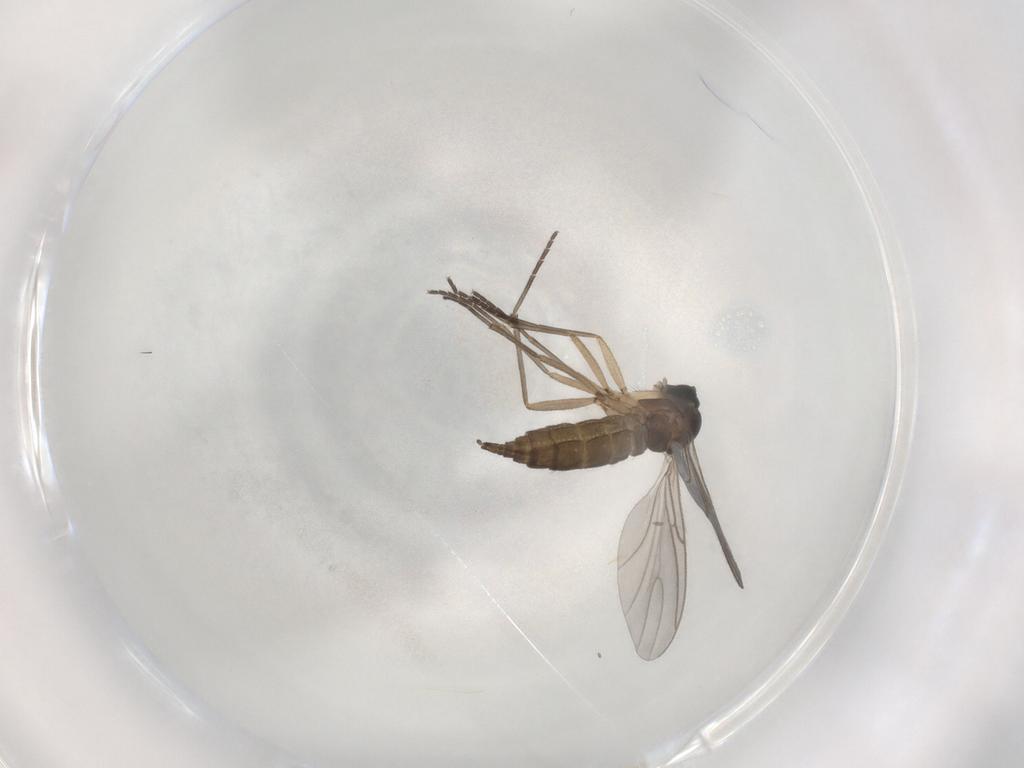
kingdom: Animalia
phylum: Arthropoda
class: Insecta
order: Diptera
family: Sciaridae
